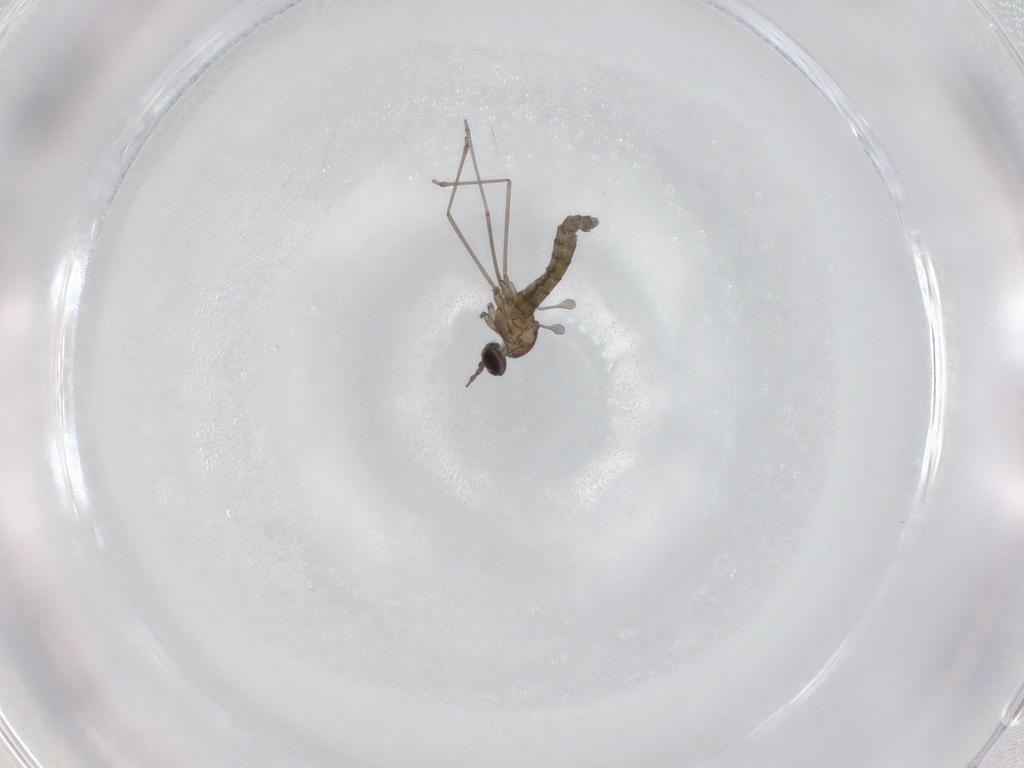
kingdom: Animalia
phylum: Arthropoda
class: Insecta
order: Diptera
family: Cecidomyiidae
